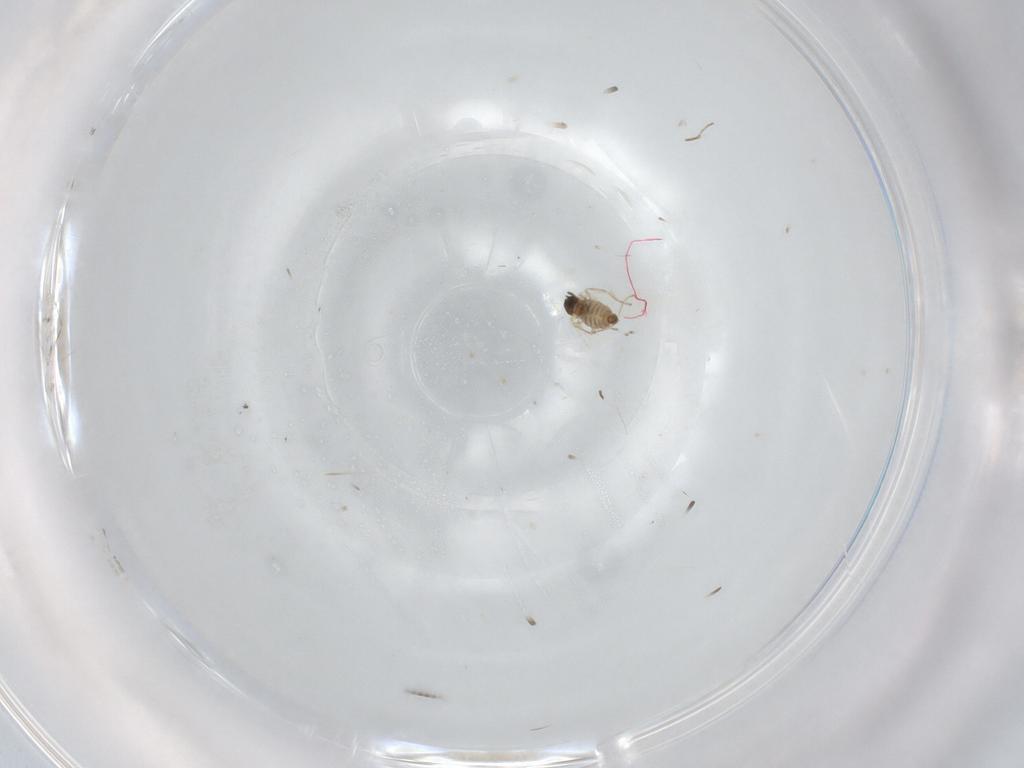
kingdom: Animalia
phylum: Arthropoda
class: Insecta
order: Diptera
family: Cecidomyiidae
